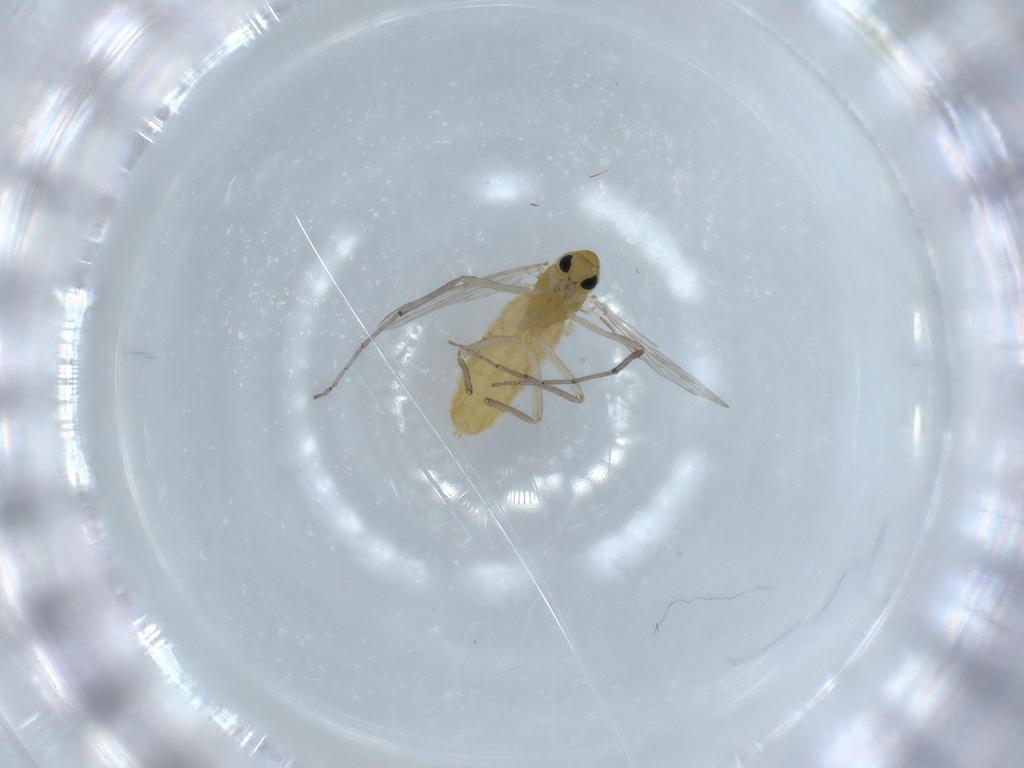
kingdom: Animalia
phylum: Arthropoda
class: Insecta
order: Diptera
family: Chironomidae
